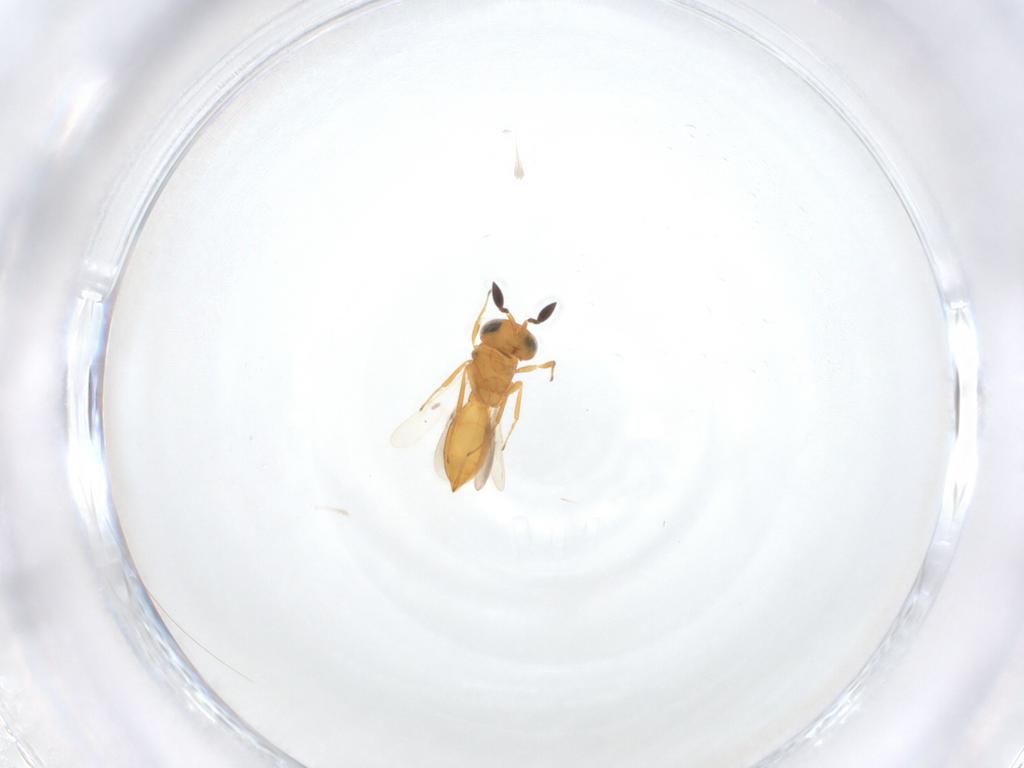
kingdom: Animalia
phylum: Arthropoda
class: Insecta
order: Hymenoptera
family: Scelionidae
